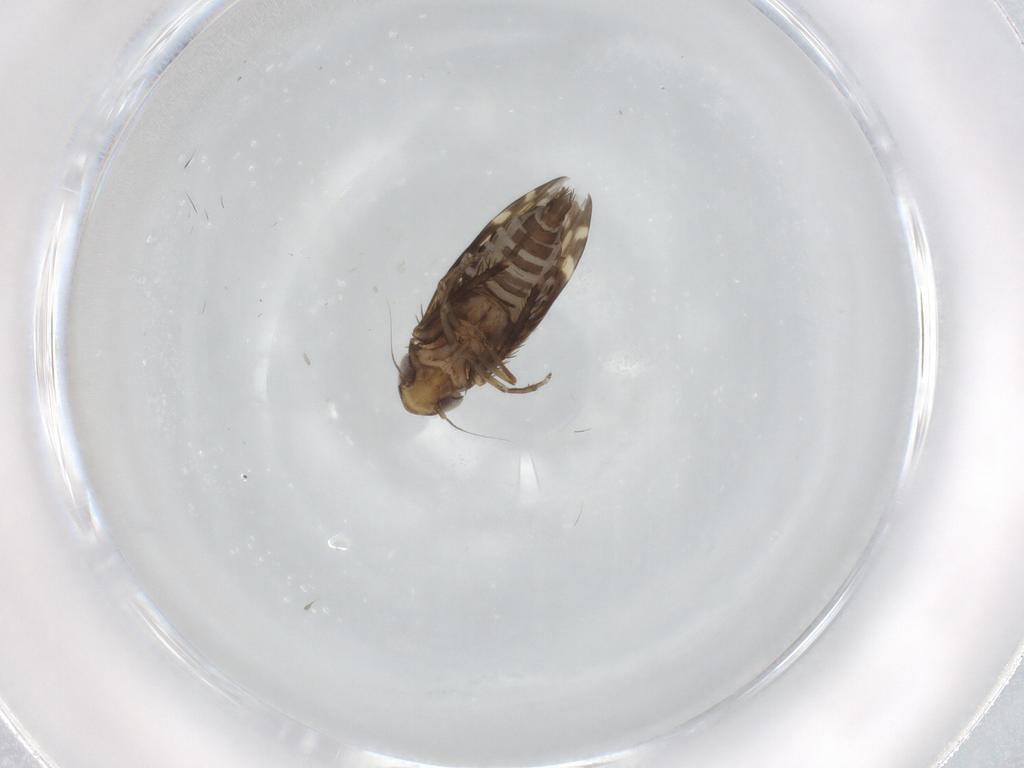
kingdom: Animalia
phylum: Arthropoda
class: Insecta
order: Hemiptera
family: Cicadellidae
